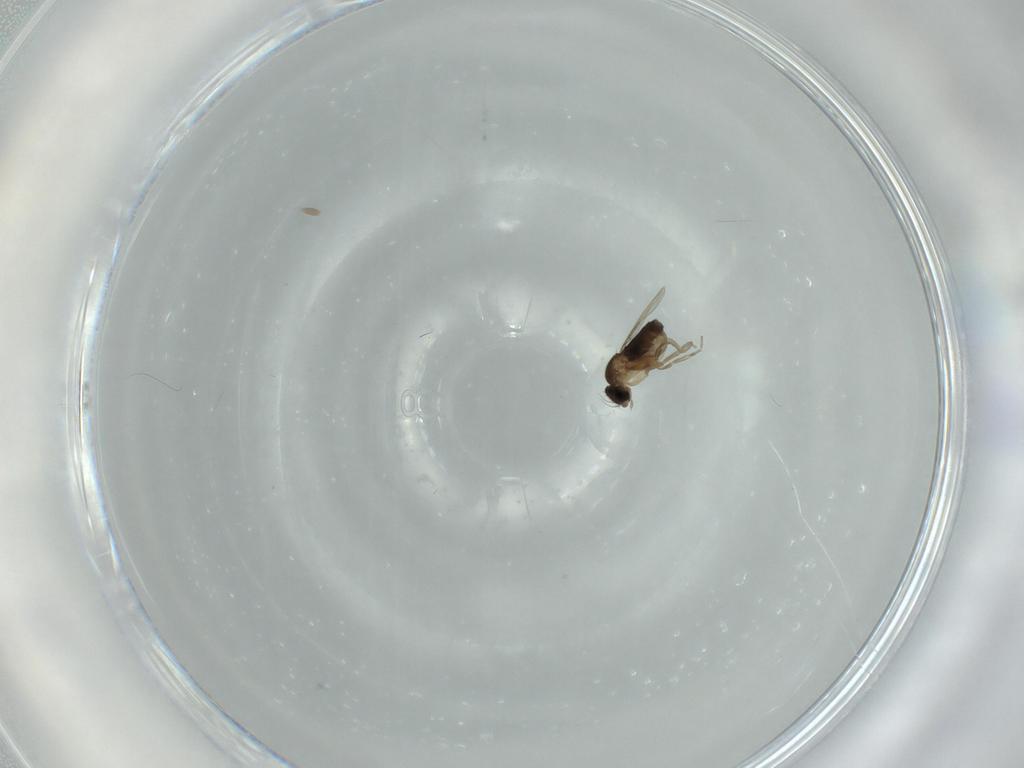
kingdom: Animalia
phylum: Arthropoda
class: Insecta
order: Diptera
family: Phoridae
